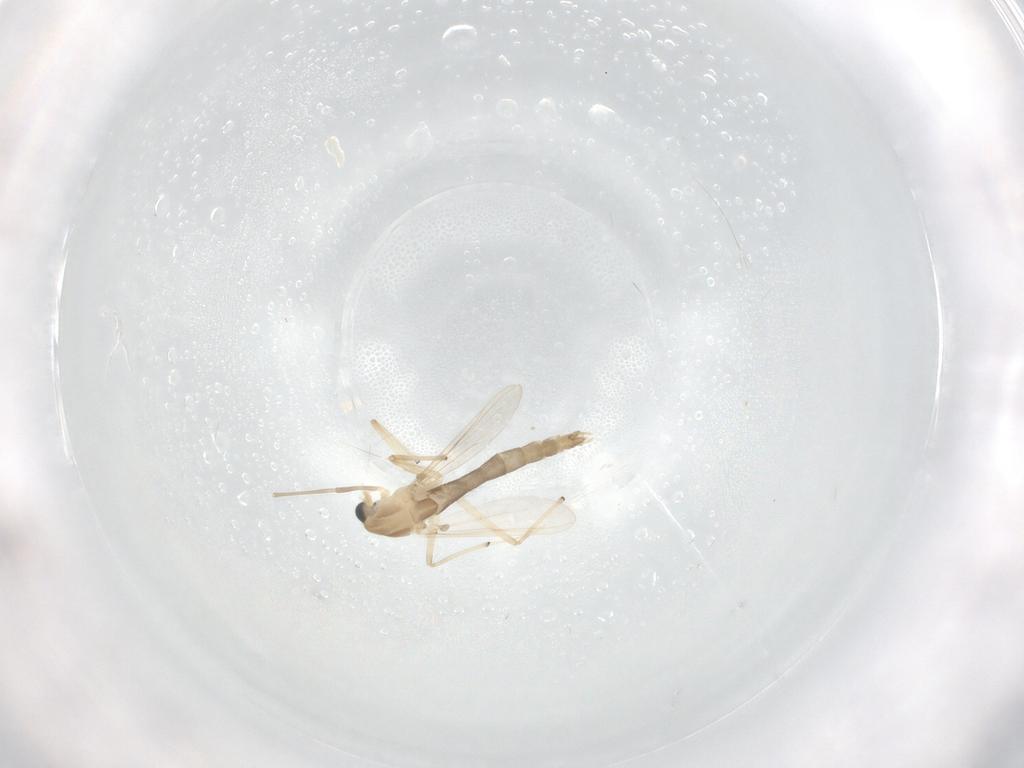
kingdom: Animalia
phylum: Arthropoda
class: Insecta
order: Diptera
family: Chironomidae
